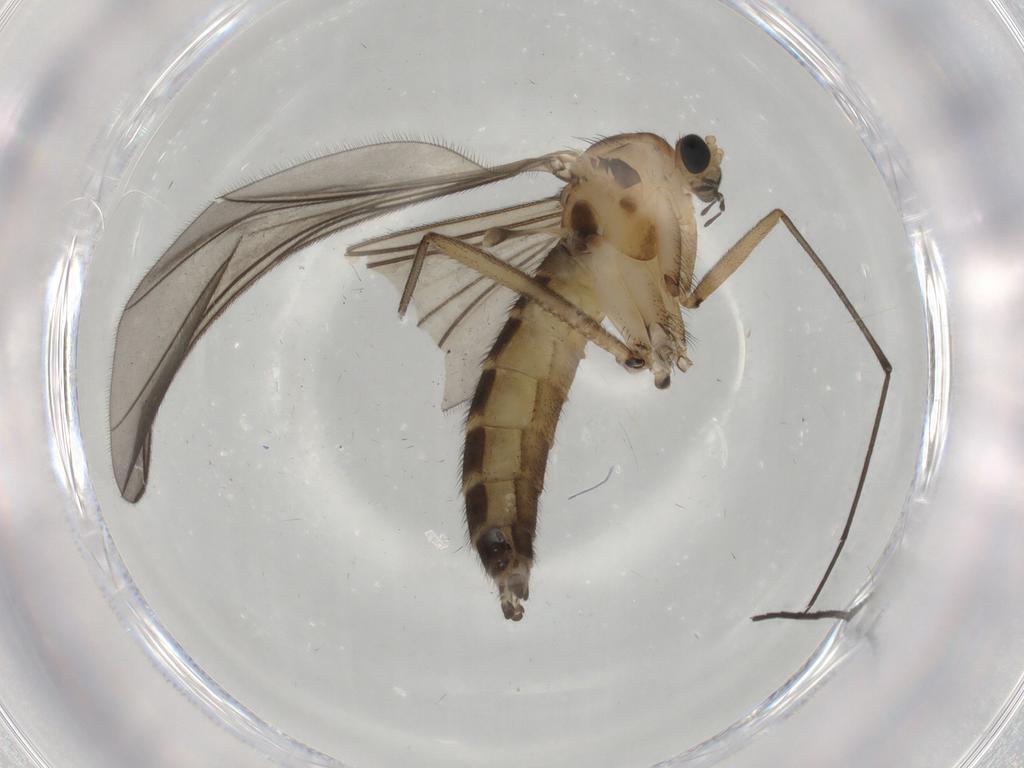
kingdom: Animalia
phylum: Arthropoda
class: Insecta
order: Diptera
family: Sciaridae
